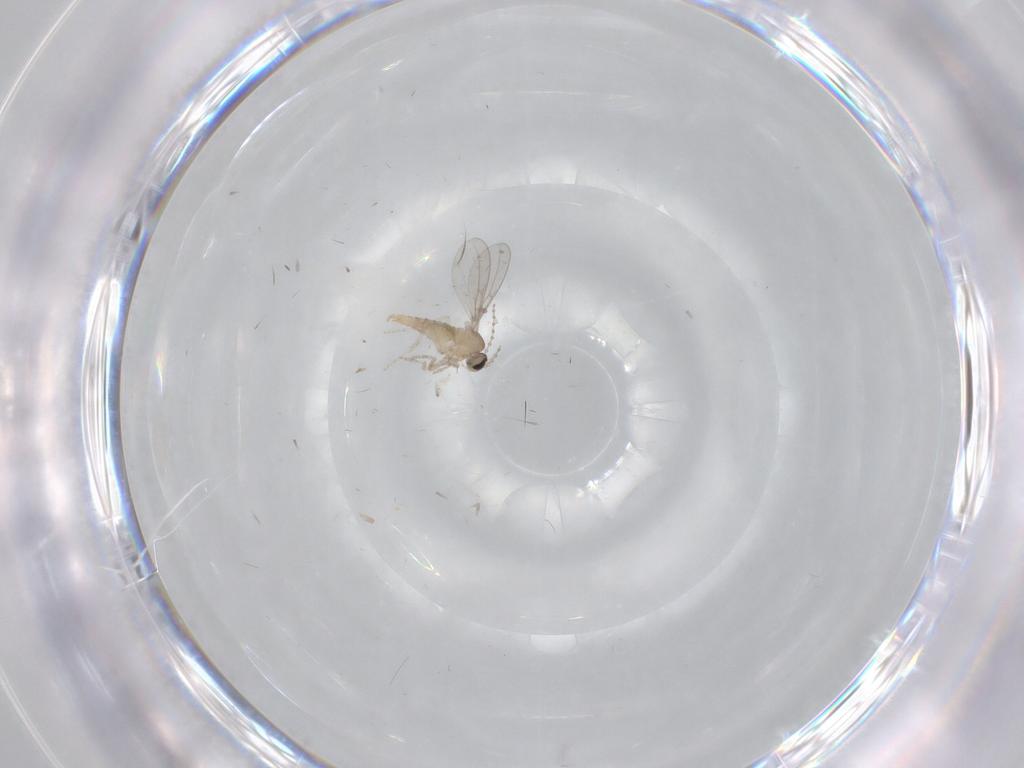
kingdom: Animalia
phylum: Arthropoda
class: Insecta
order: Diptera
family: Cecidomyiidae
